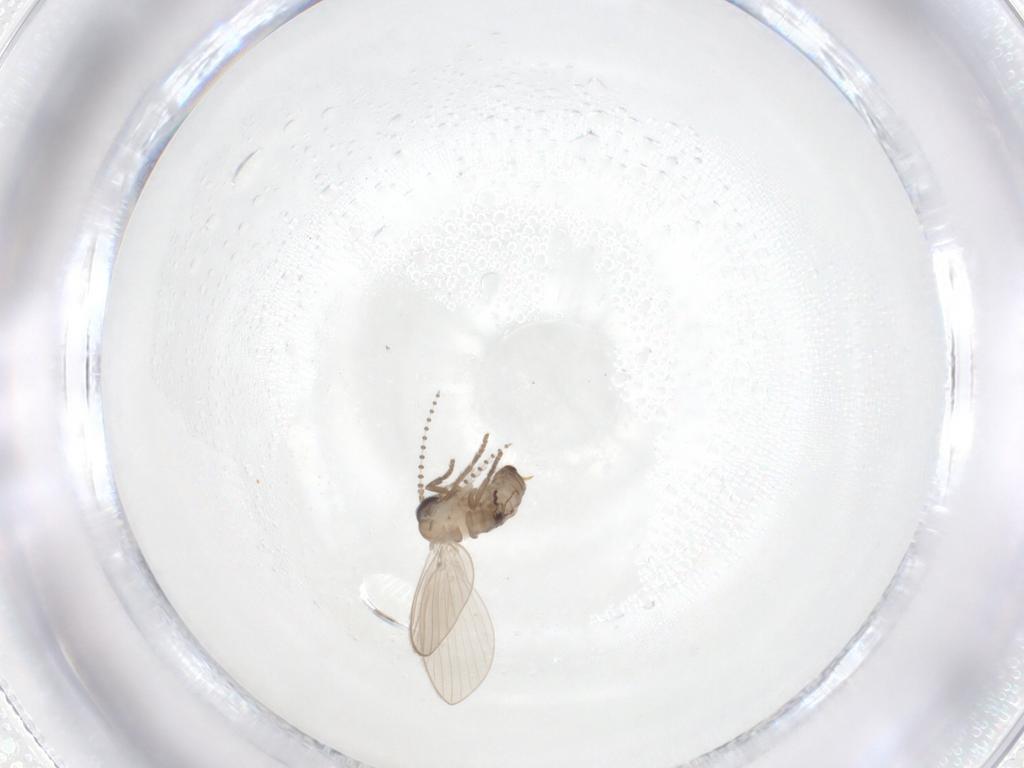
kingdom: Animalia
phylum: Arthropoda
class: Insecta
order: Diptera
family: Psychodidae
